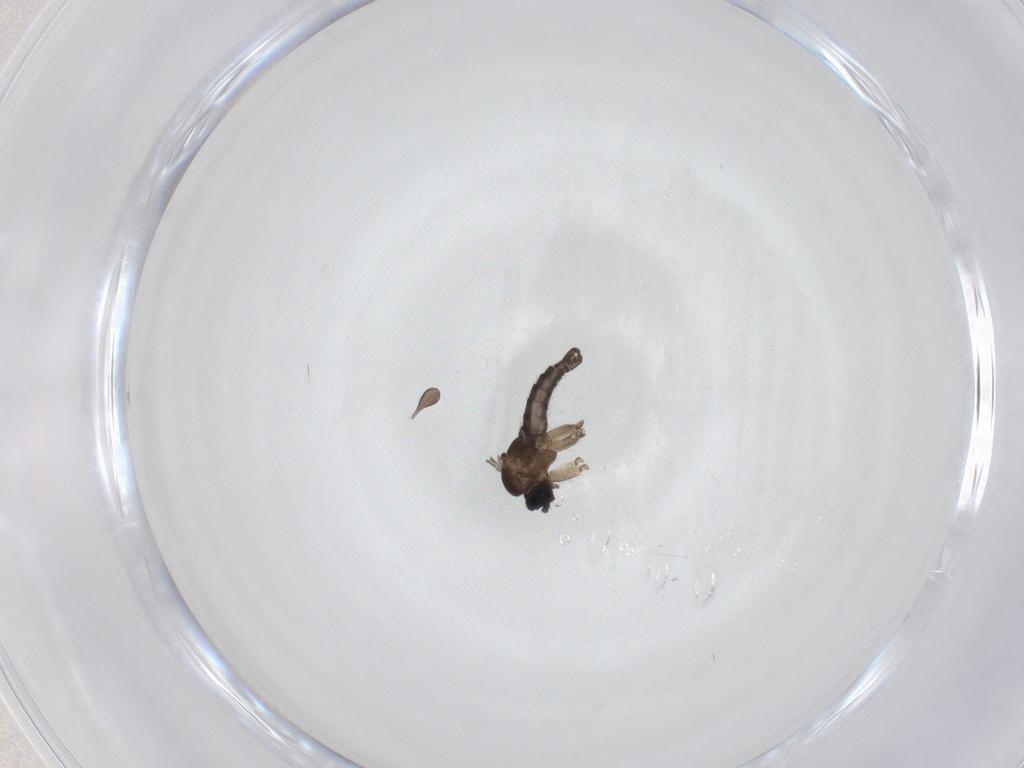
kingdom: Animalia
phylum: Arthropoda
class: Insecta
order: Diptera
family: Sciaridae
